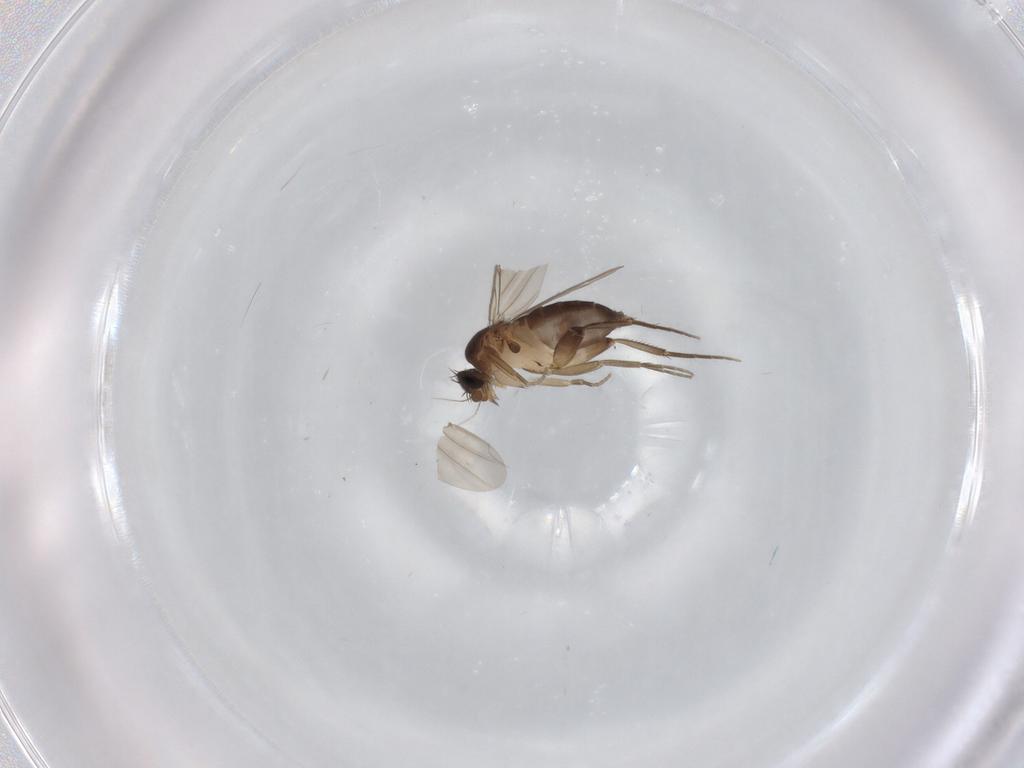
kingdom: Animalia
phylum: Arthropoda
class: Insecta
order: Diptera
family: Phoridae
